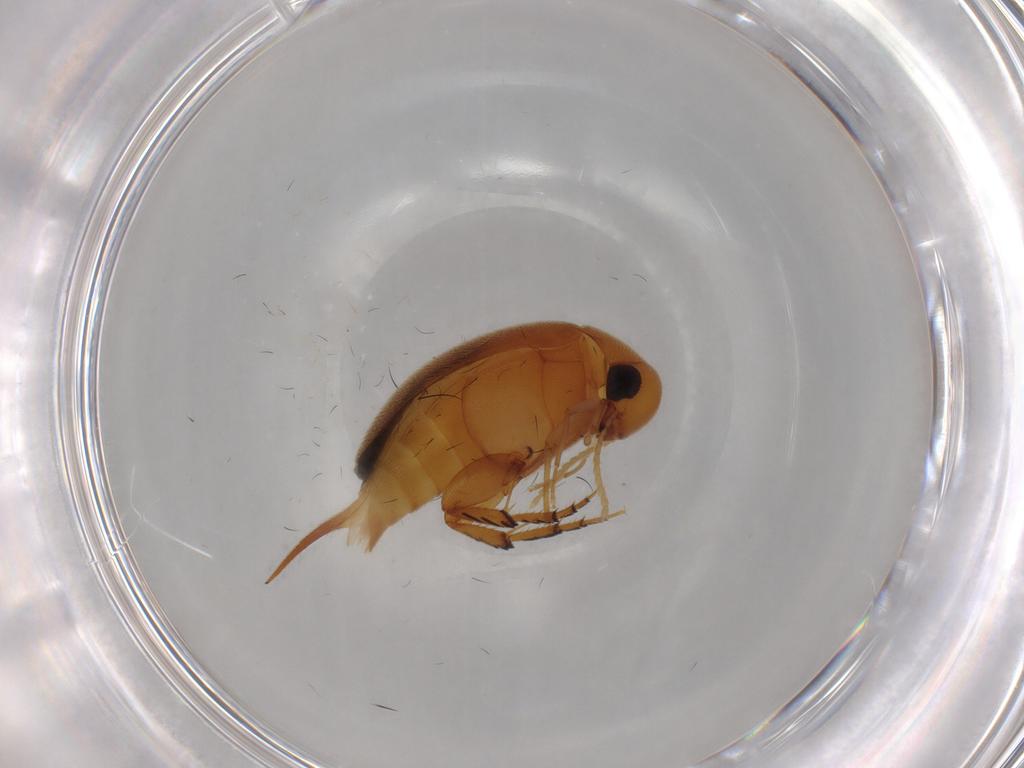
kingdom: Animalia
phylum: Arthropoda
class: Insecta
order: Coleoptera
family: Mordellidae
